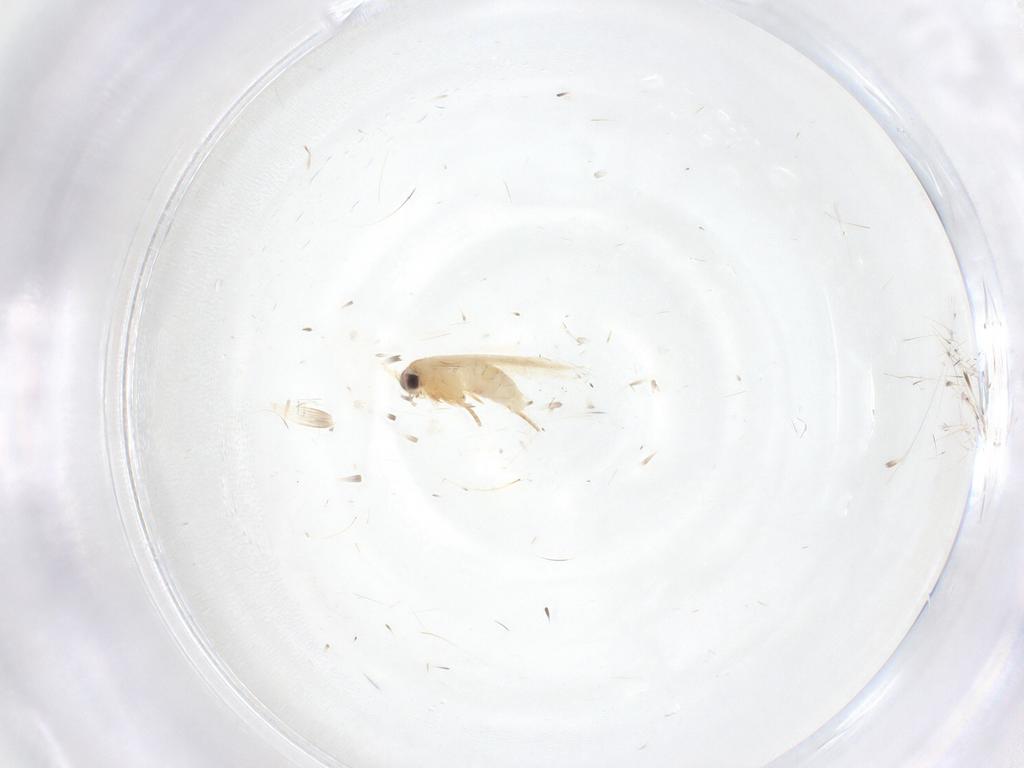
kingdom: Animalia
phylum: Arthropoda
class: Insecta
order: Lepidoptera
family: Nepticulidae
